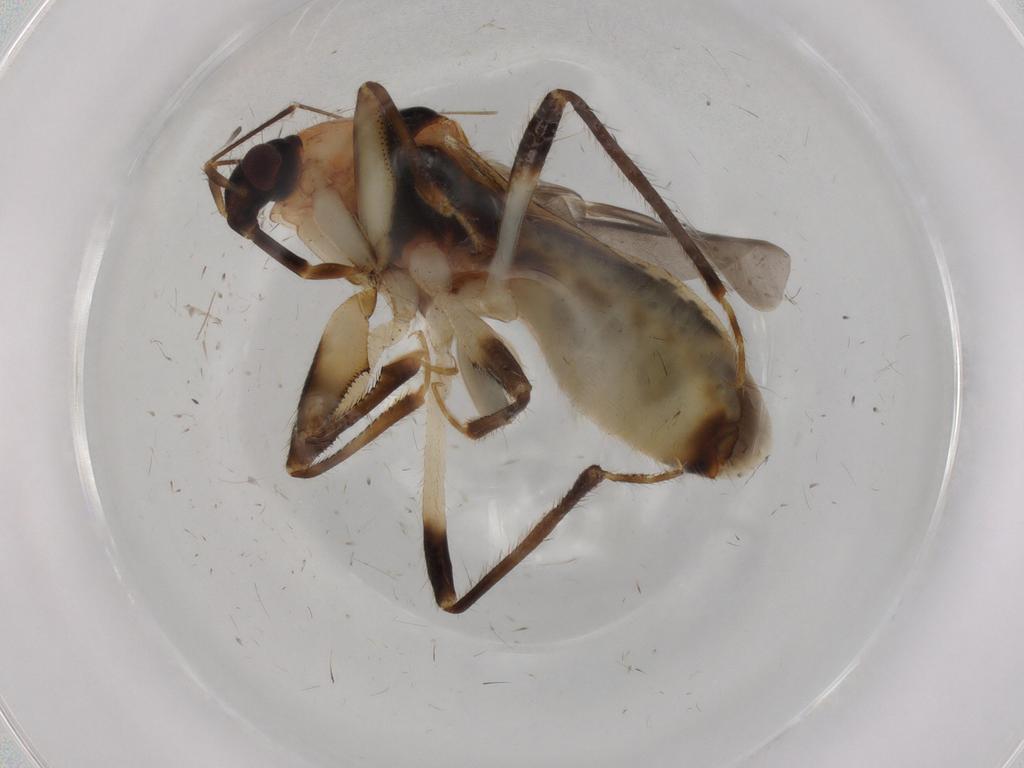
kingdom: Animalia
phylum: Arthropoda
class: Insecta
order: Hemiptera
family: Nabidae
